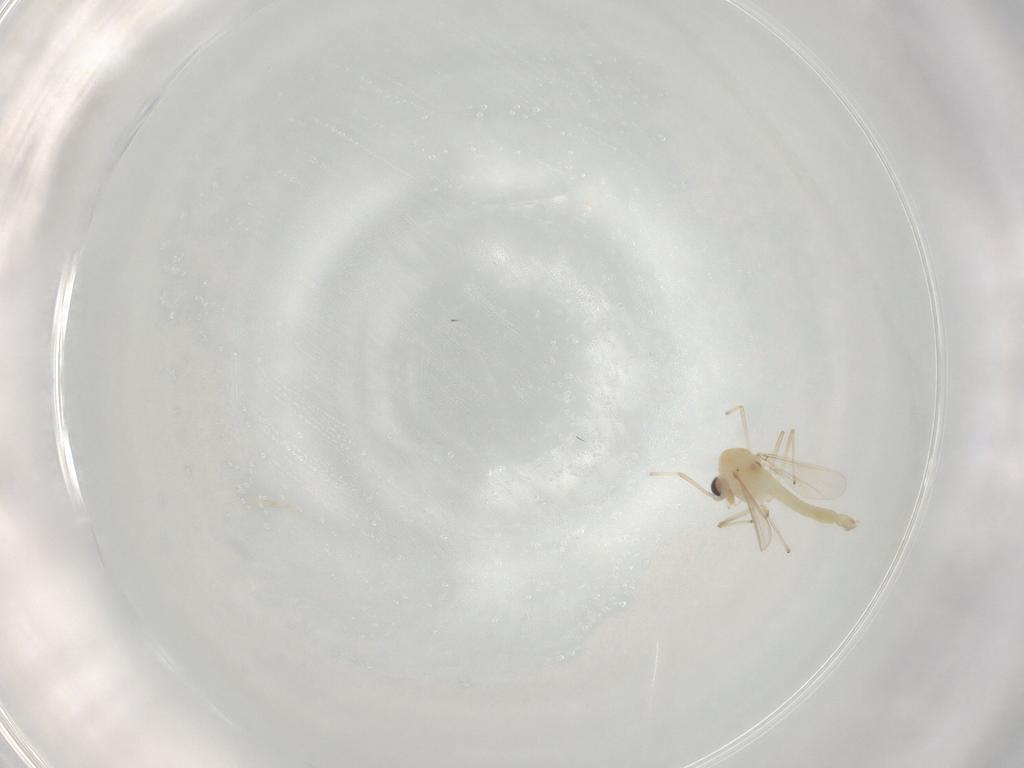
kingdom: Animalia
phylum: Arthropoda
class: Insecta
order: Diptera
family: Chironomidae
